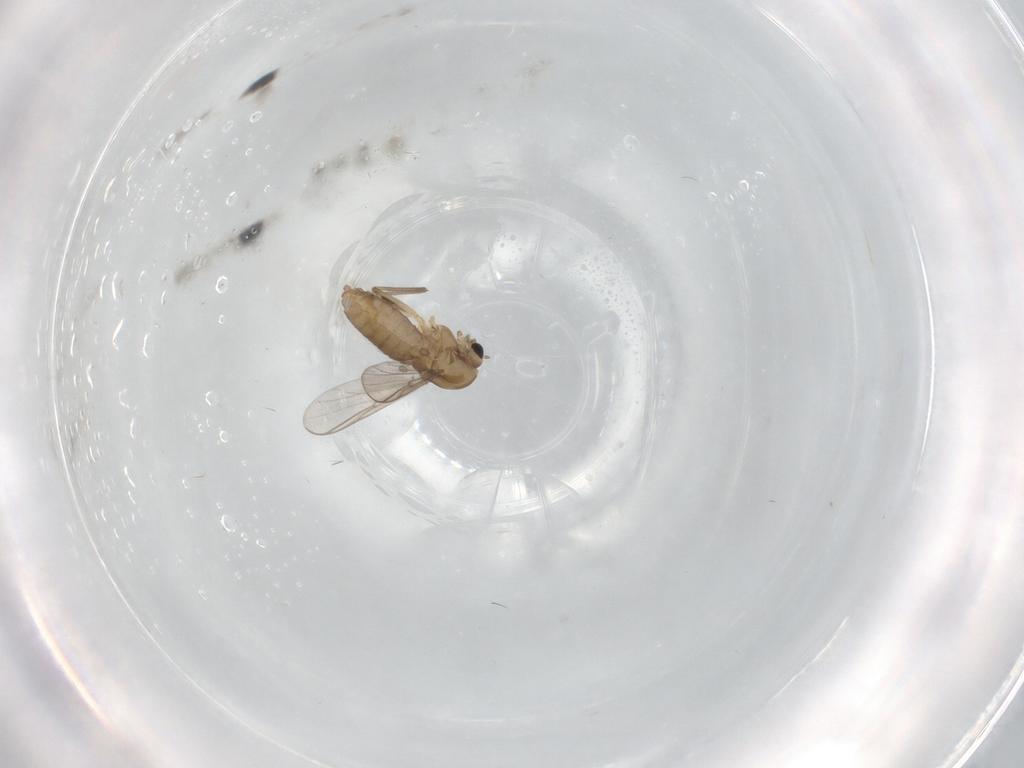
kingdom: Animalia
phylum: Arthropoda
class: Insecta
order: Diptera
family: Chironomidae
